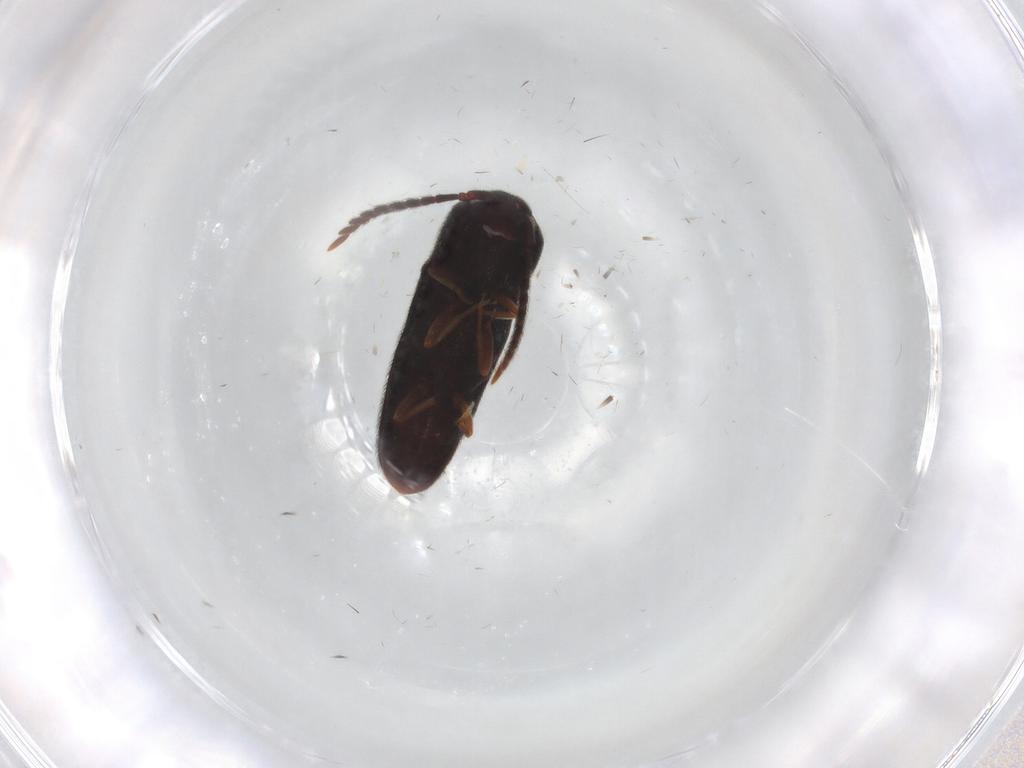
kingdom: Animalia
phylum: Arthropoda
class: Insecta
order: Coleoptera
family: Eucnemidae
